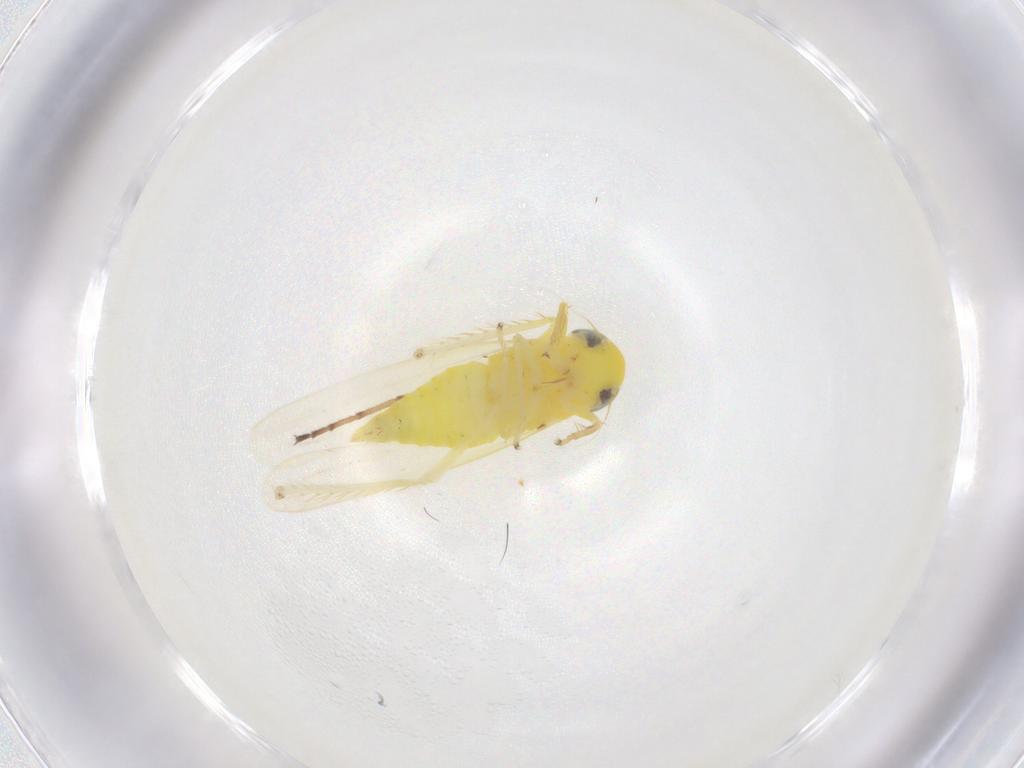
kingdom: Animalia
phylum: Arthropoda
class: Insecta
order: Hemiptera
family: Cicadellidae
